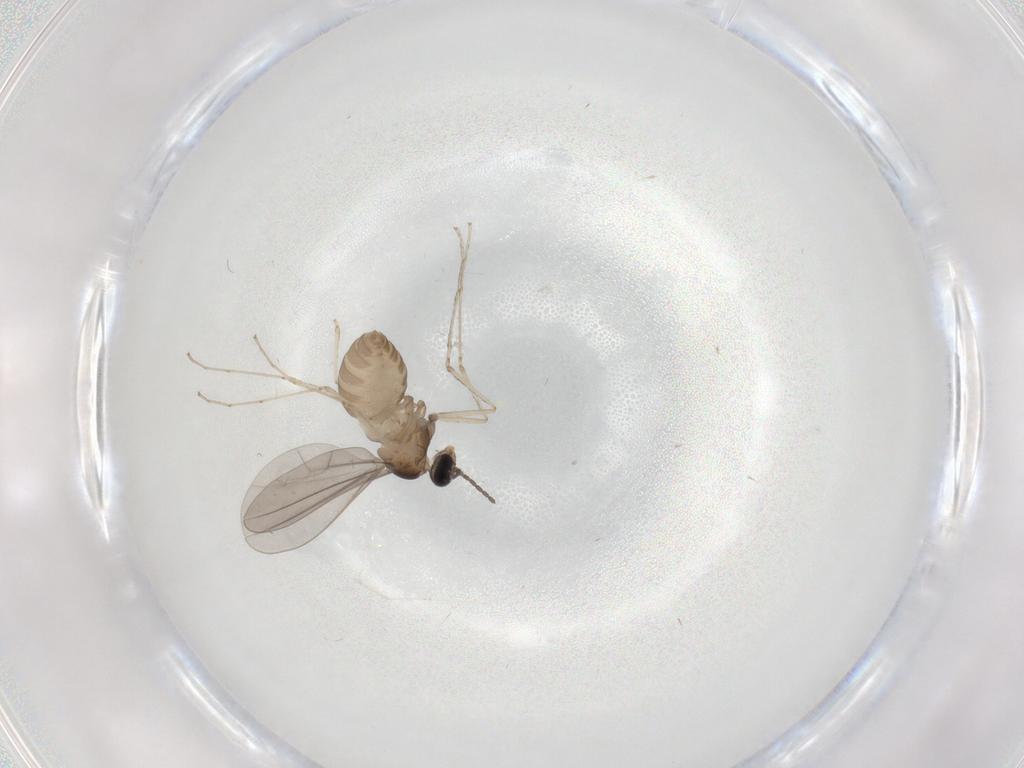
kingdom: Animalia
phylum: Arthropoda
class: Insecta
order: Diptera
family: Cecidomyiidae
